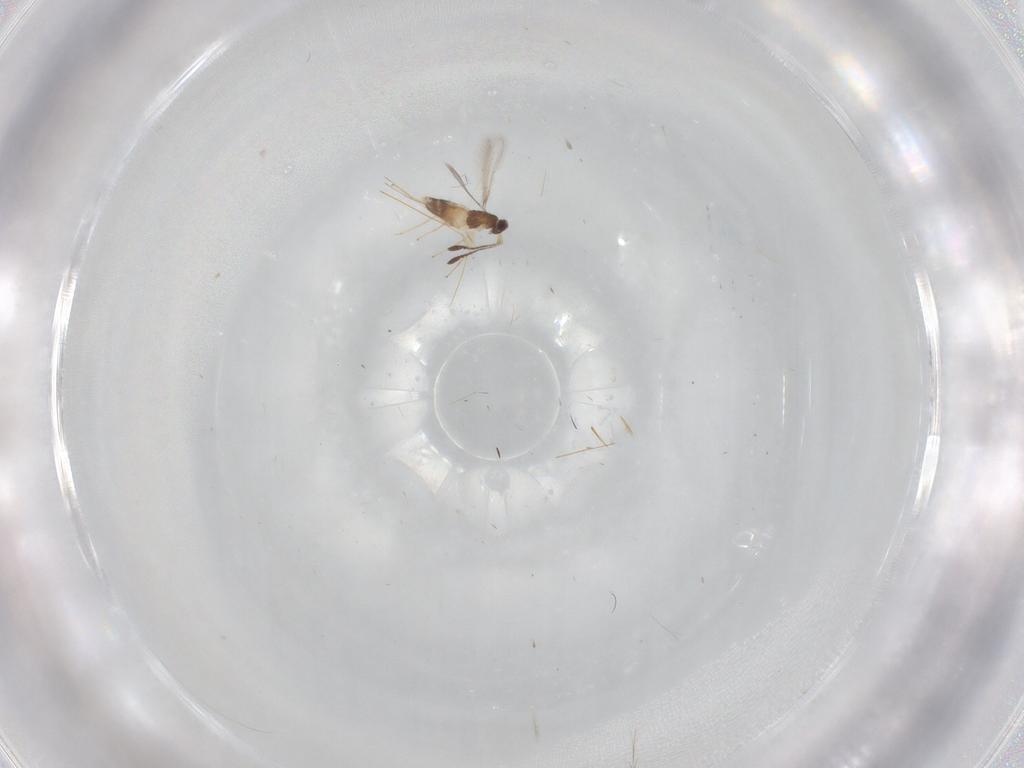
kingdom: Animalia
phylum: Arthropoda
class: Insecta
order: Hymenoptera
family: Mymaridae
